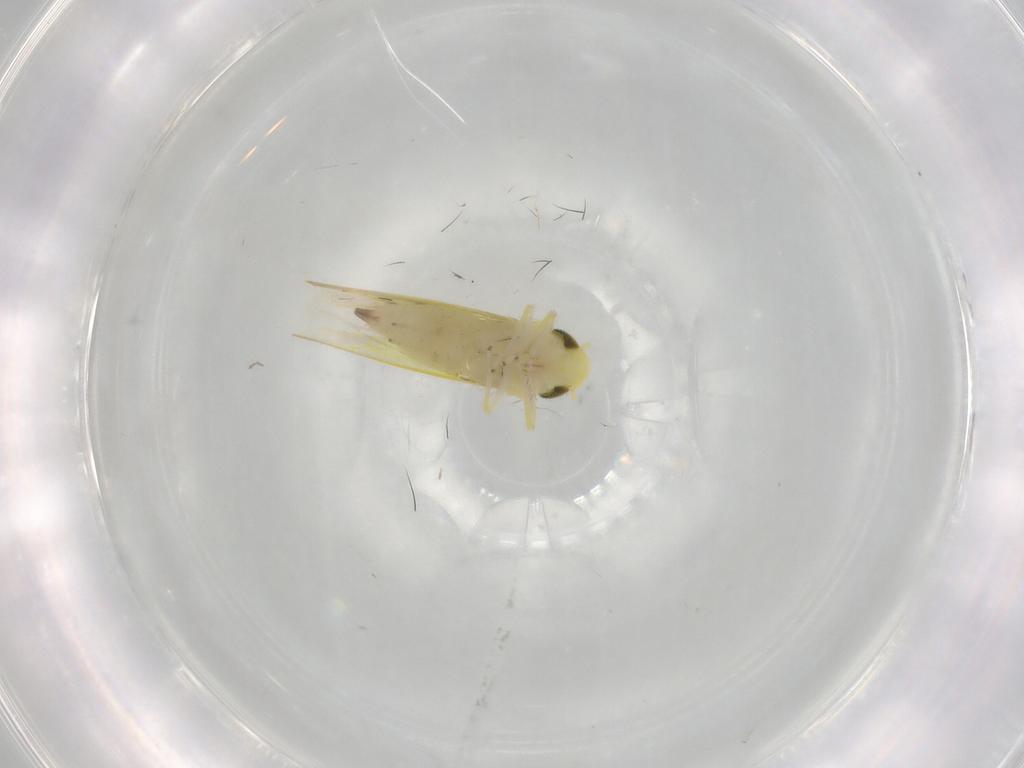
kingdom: Animalia
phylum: Arthropoda
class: Insecta
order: Hemiptera
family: Cicadellidae
